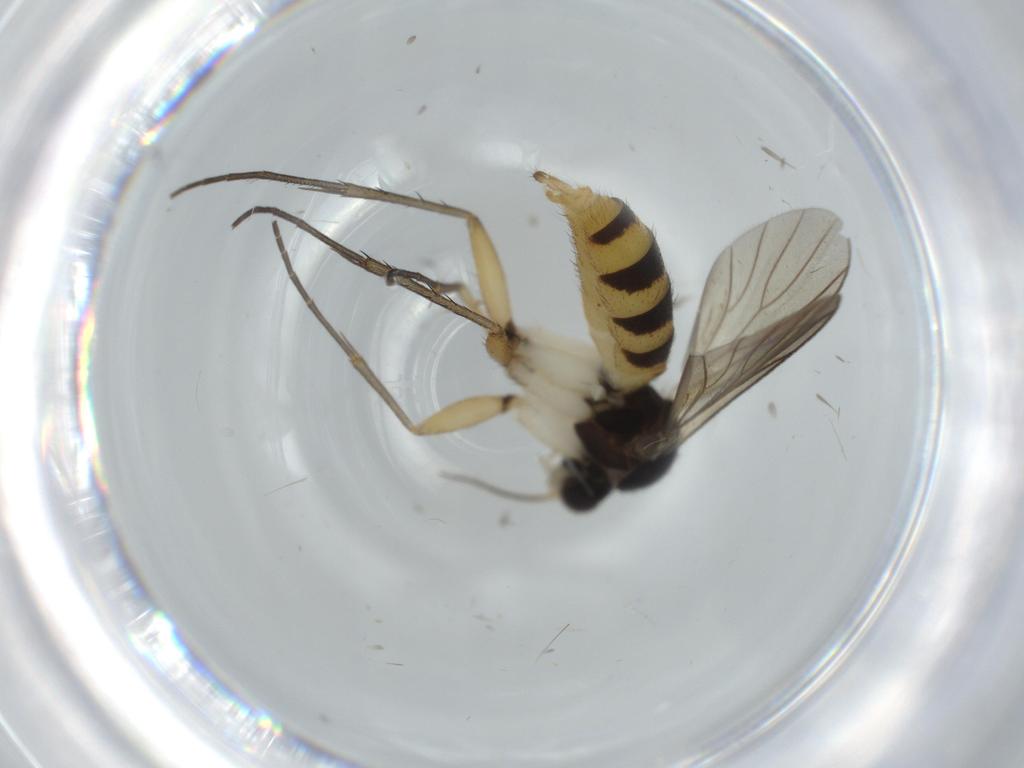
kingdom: Animalia
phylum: Arthropoda
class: Insecta
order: Diptera
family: Cecidomyiidae
